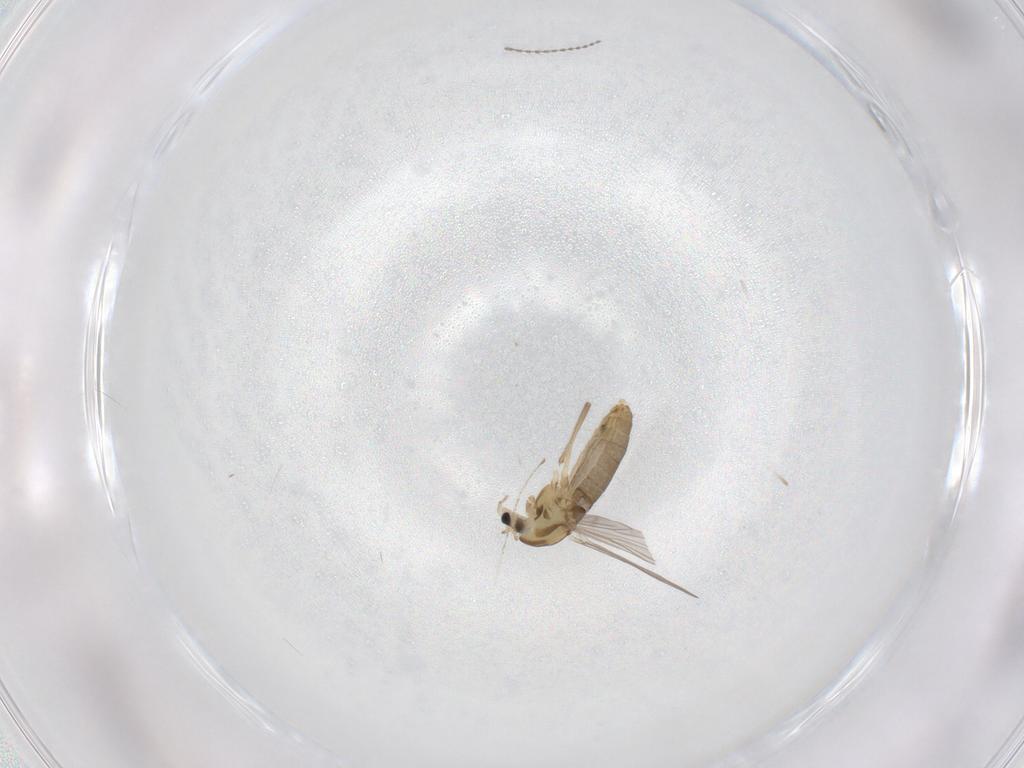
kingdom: Animalia
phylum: Arthropoda
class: Insecta
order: Diptera
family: Chironomidae
